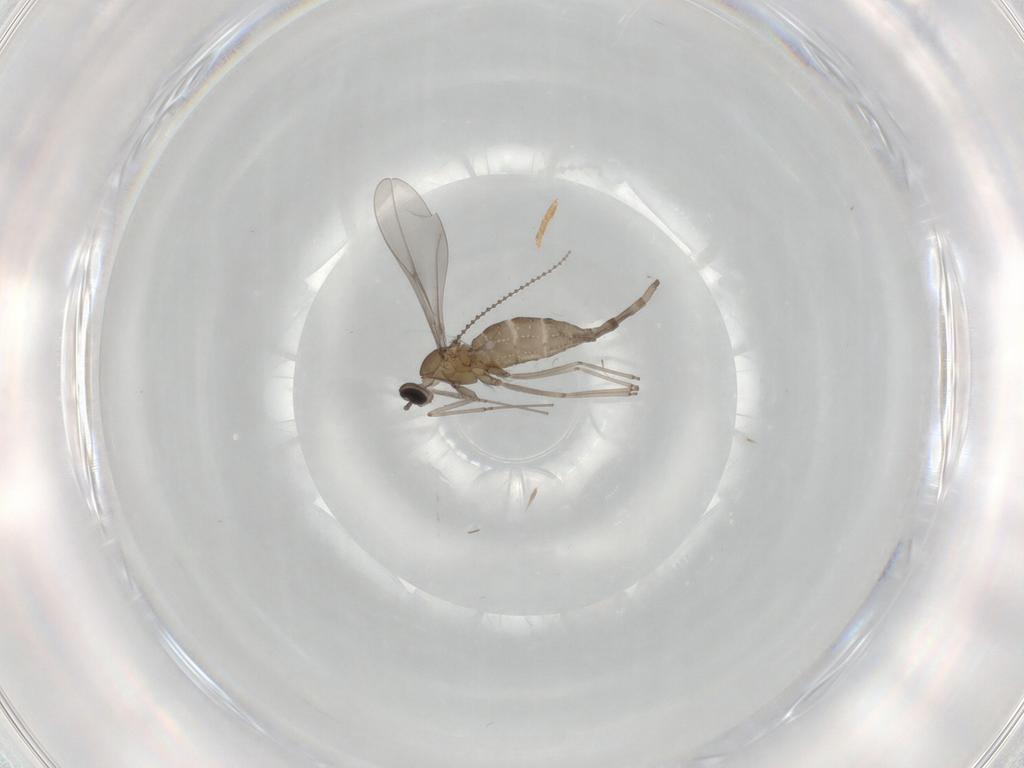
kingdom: Animalia
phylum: Arthropoda
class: Insecta
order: Diptera
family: Cecidomyiidae
